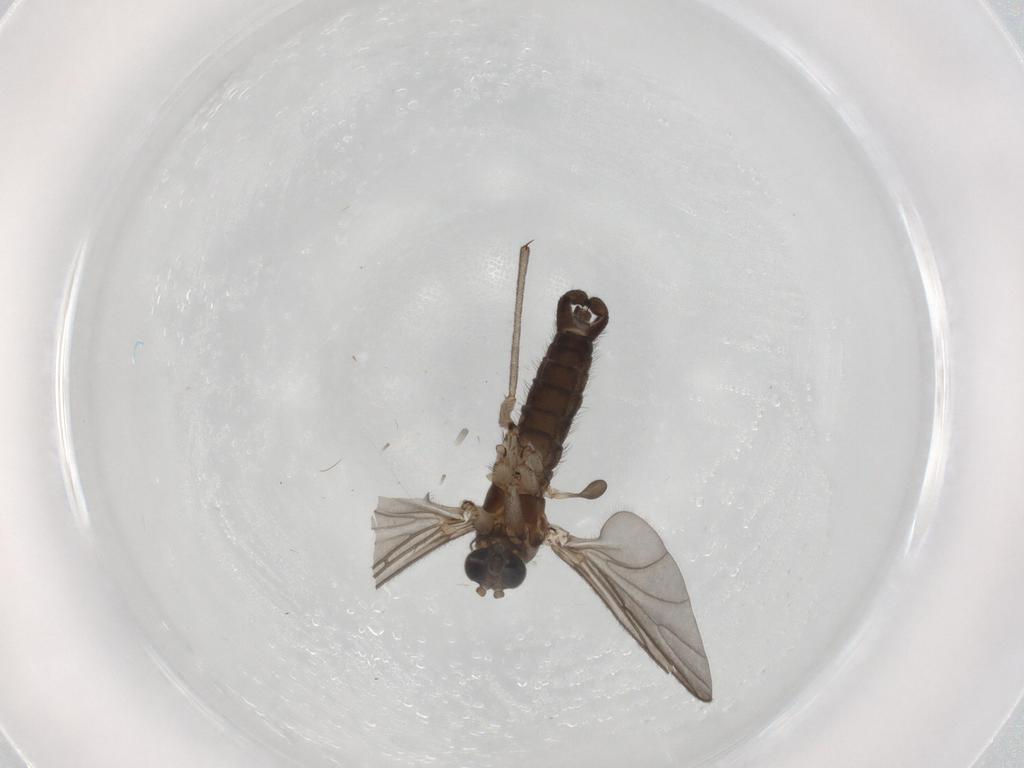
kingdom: Animalia
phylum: Arthropoda
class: Insecta
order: Diptera
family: Sciaridae
